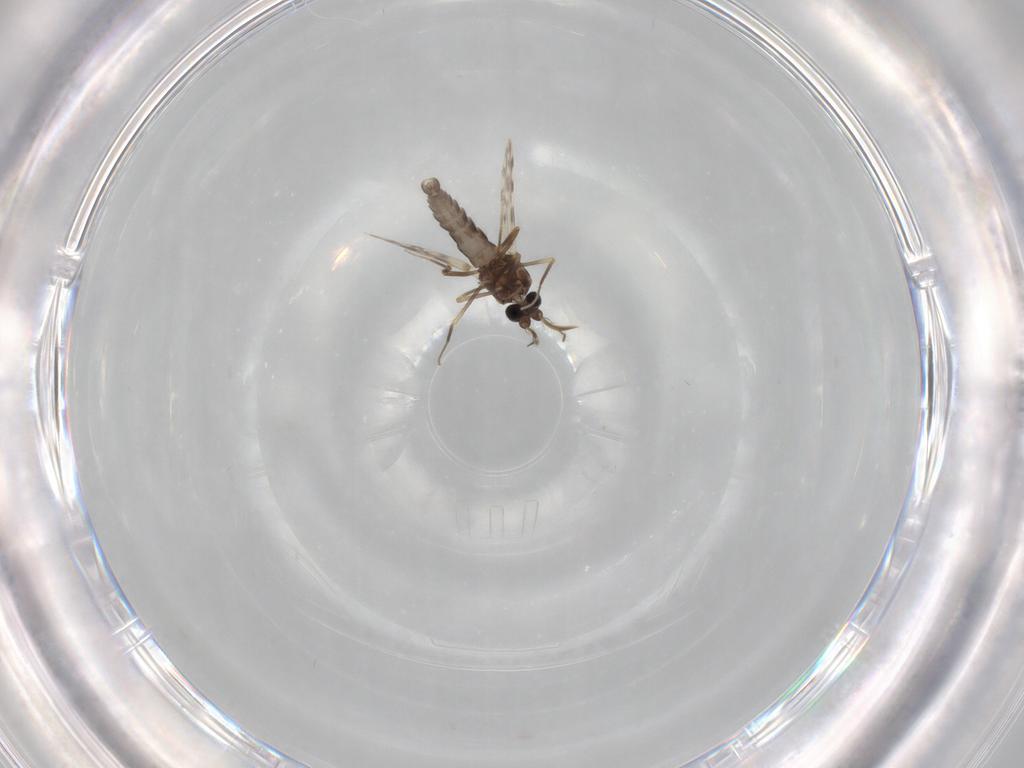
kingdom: Animalia
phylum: Arthropoda
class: Insecta
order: Diptera
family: Ceratopogonidae
